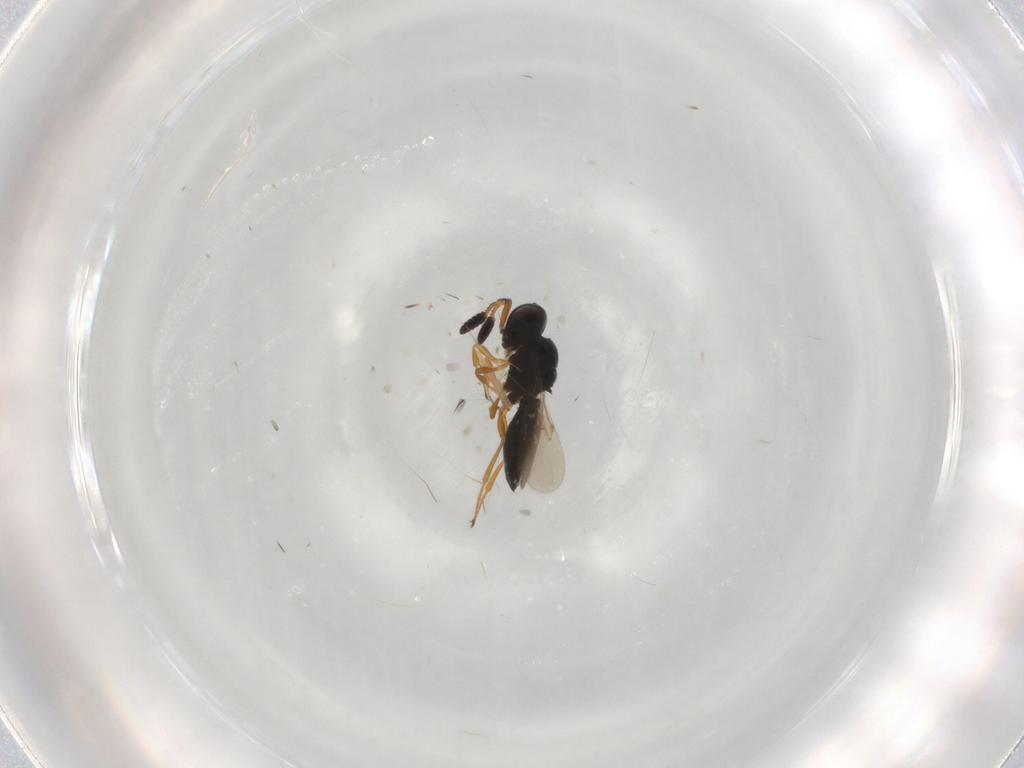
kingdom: Animalia
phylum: Arthropoda
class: Insecta
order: Hymenoptera
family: Scelionidae
